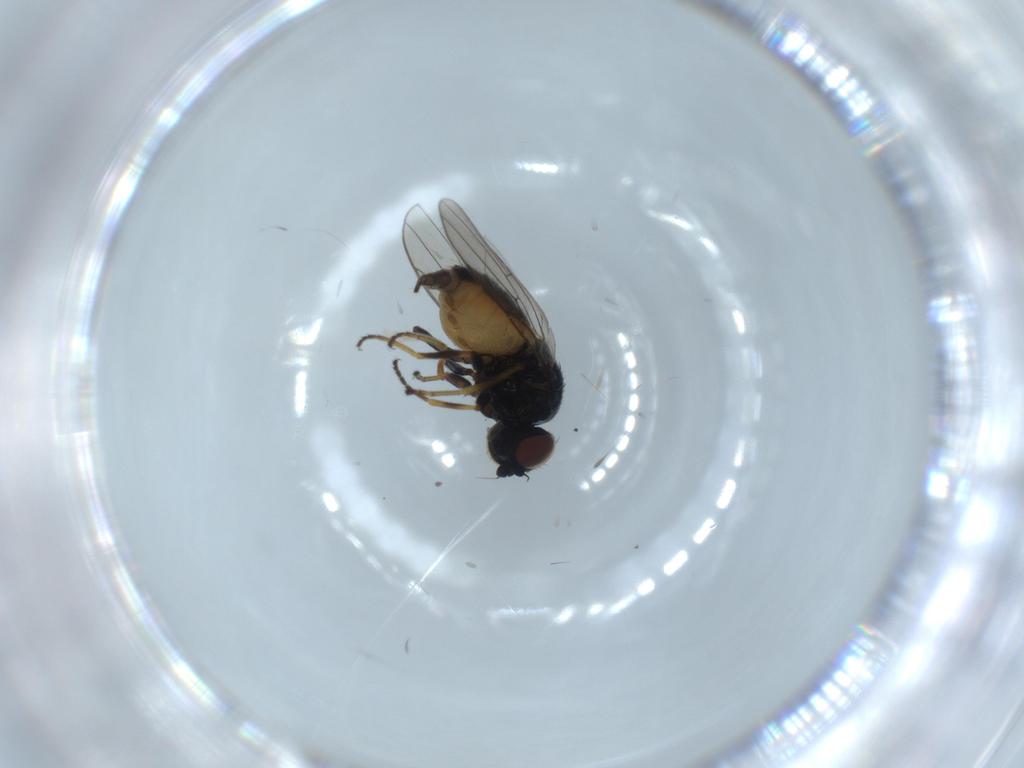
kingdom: Animalia
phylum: Arthropoda
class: Insecta
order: Diptera
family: Chloropidae
